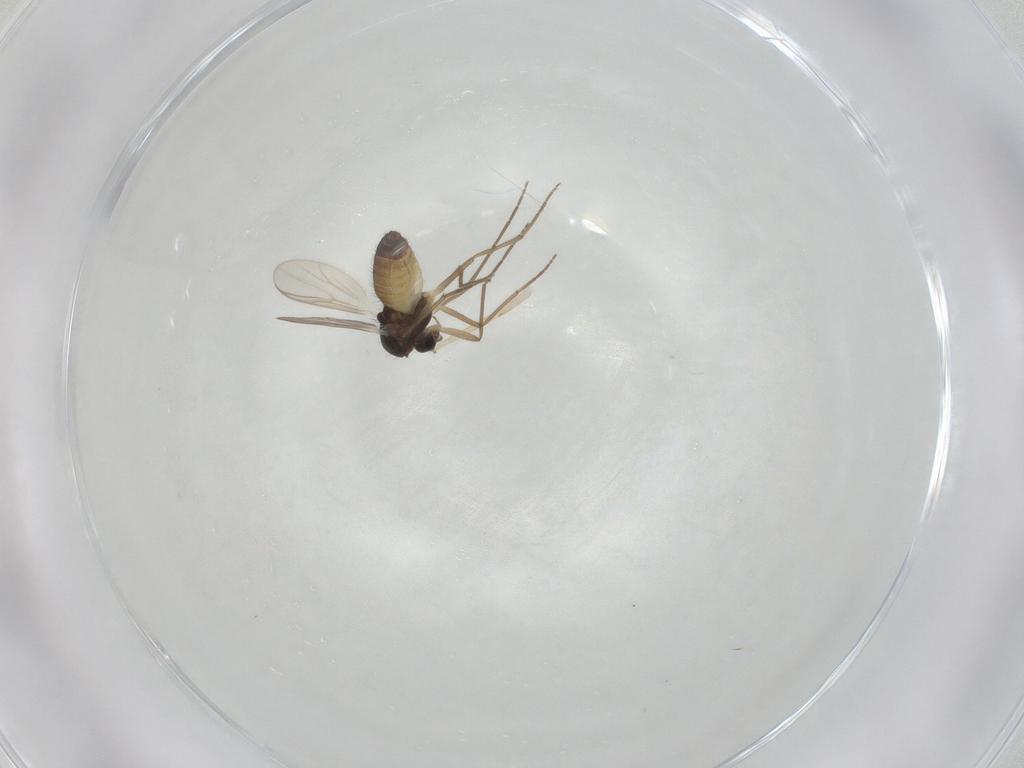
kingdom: Animalia
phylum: Arthropoda
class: Insecta
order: Diptera
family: Chironomidae
